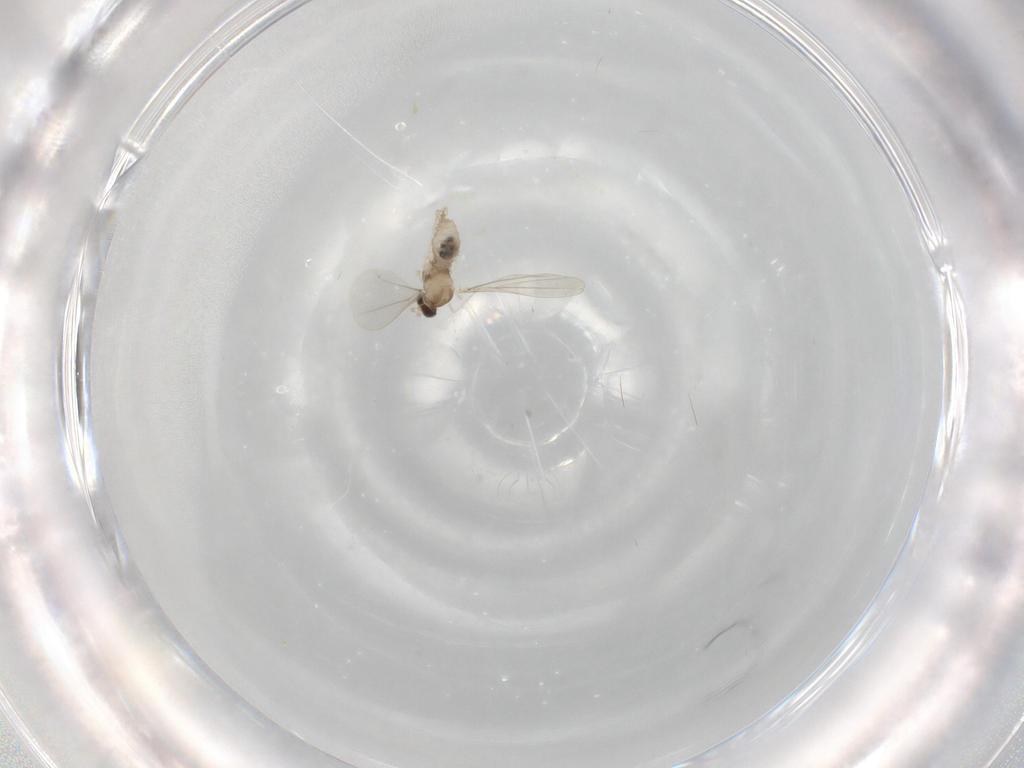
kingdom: Animalia
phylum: Arthropoda
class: Insecta
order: Diptera
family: Cecidomyiidae
